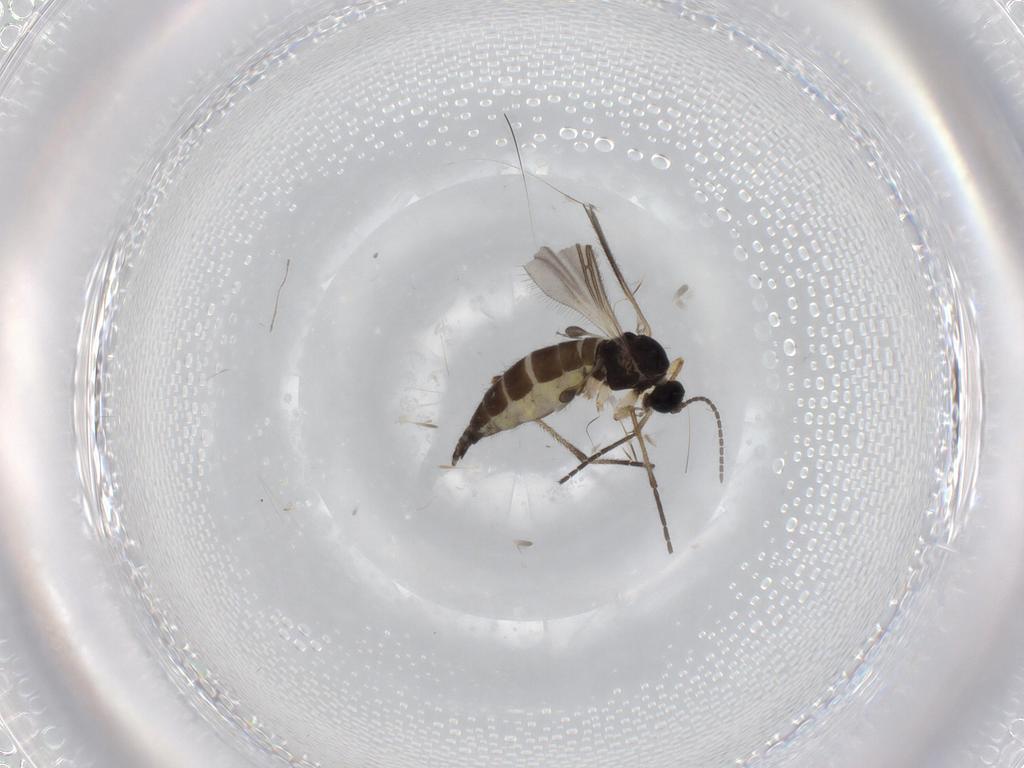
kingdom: Animalia
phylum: Arthropoda
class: Insecta
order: Diptera
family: Sciaridae
